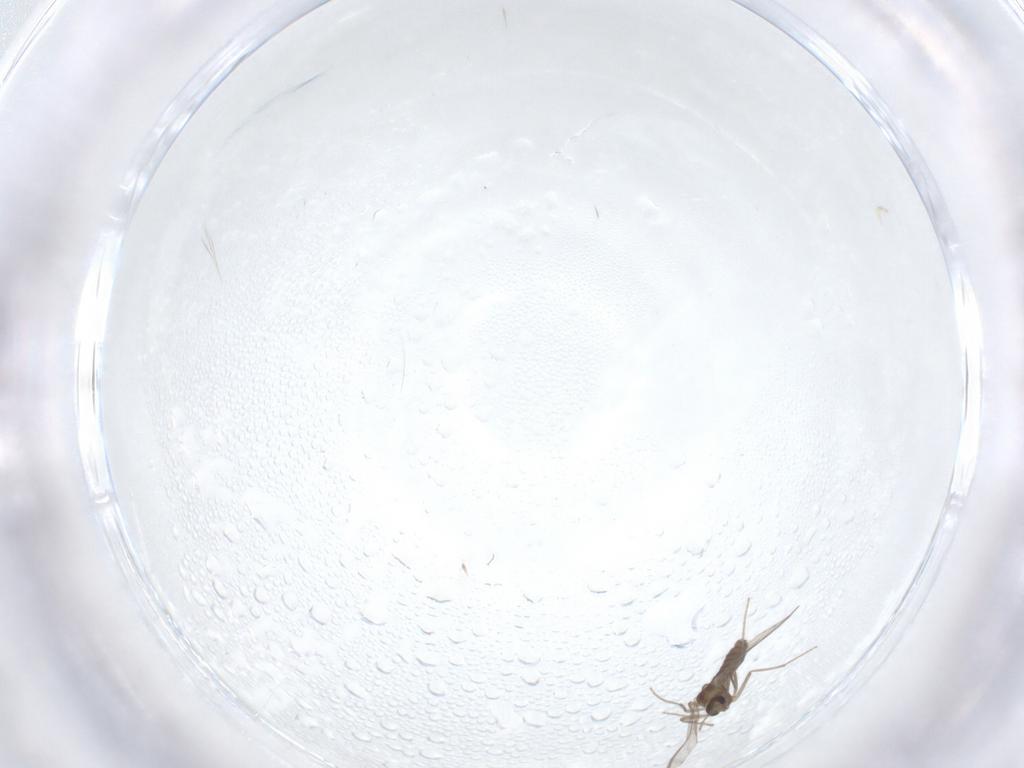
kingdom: Animalia
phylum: Arthropoda
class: Insecta
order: Diptera
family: Chironomidae
